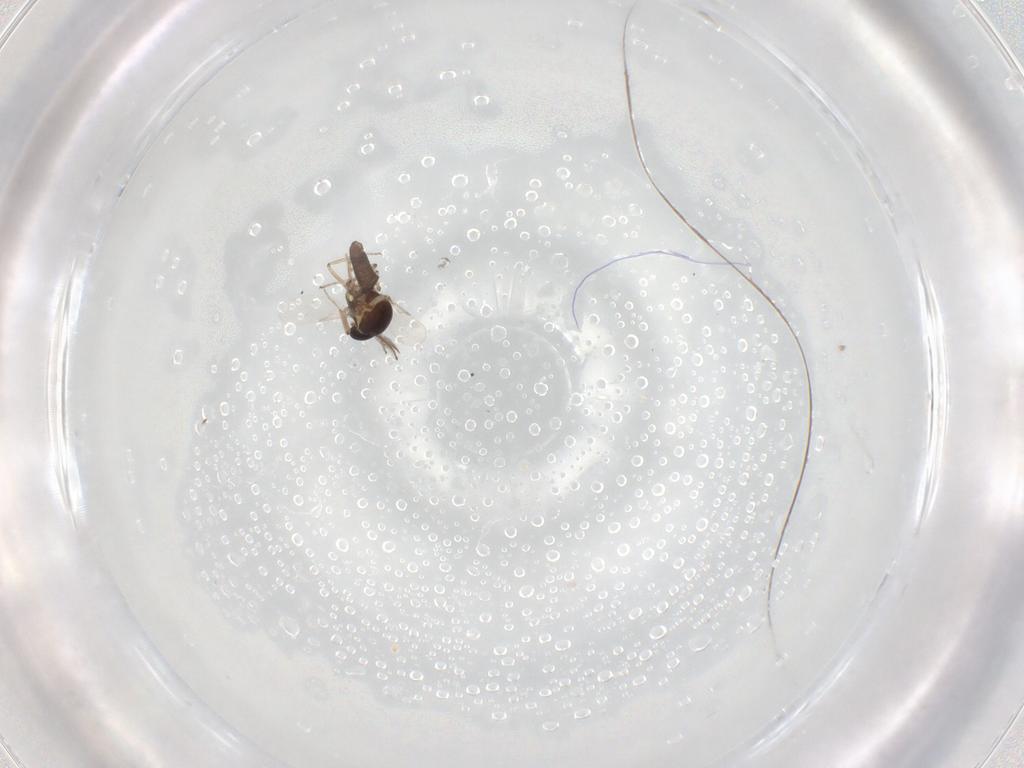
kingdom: Animalia
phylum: Arthropoda
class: Insecta
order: Diptera
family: Ceratopogonidae
